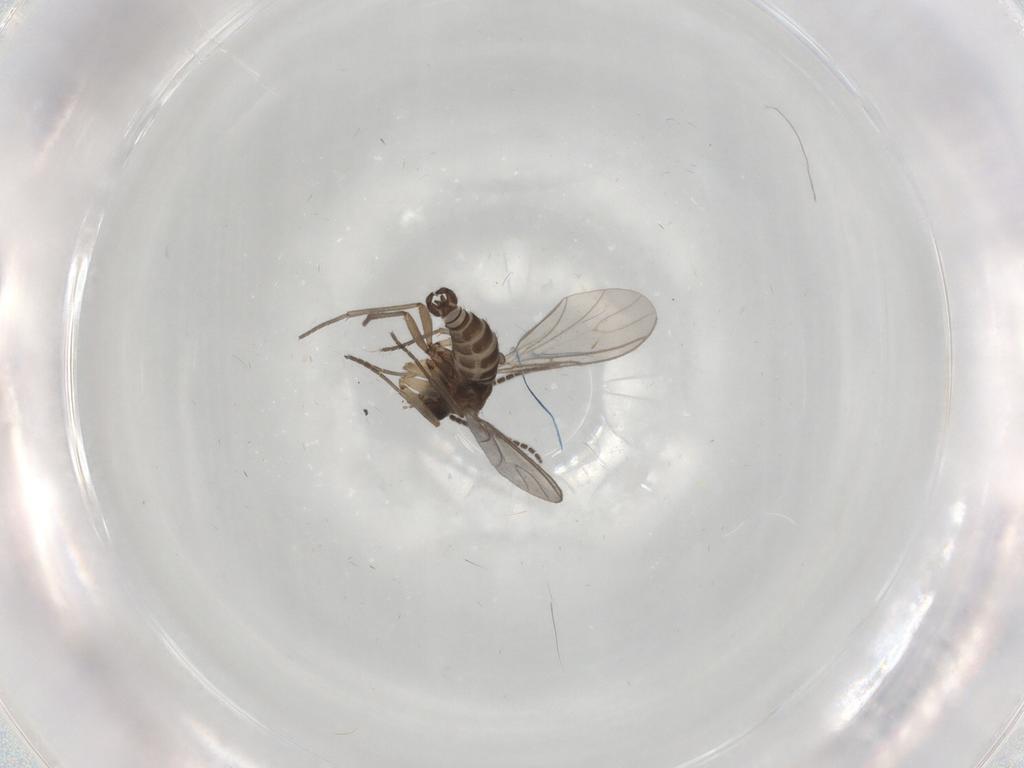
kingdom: Animalia
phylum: Arthropoda
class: Insecta
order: Diptera
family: Sciaridae
